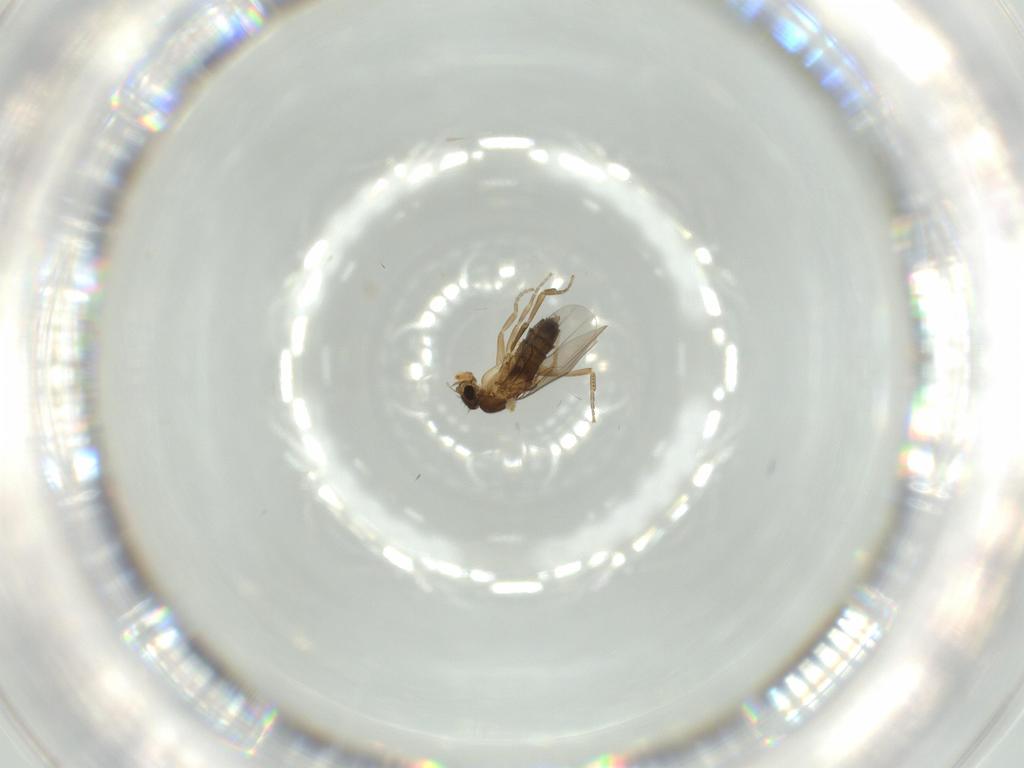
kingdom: Animalia
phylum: Arthropoda
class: Insecta
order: Diptera
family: Phoridae
